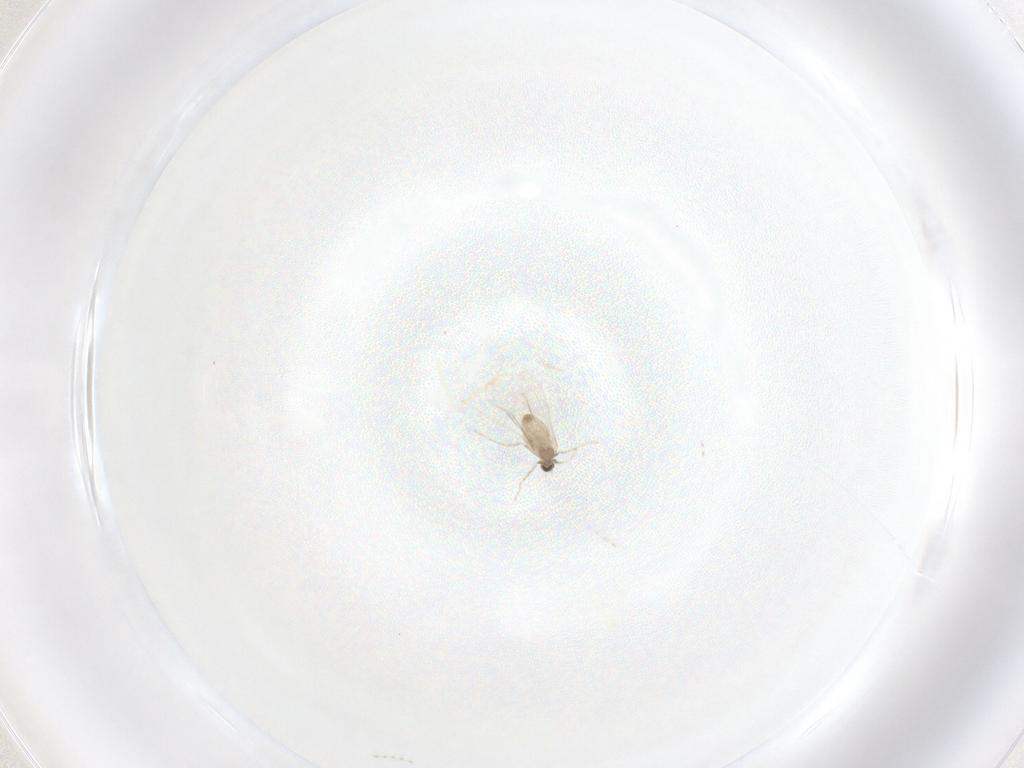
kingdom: Animalia
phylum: Arthropoda
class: Insecta
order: Diptera
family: Cecidomyiidae
